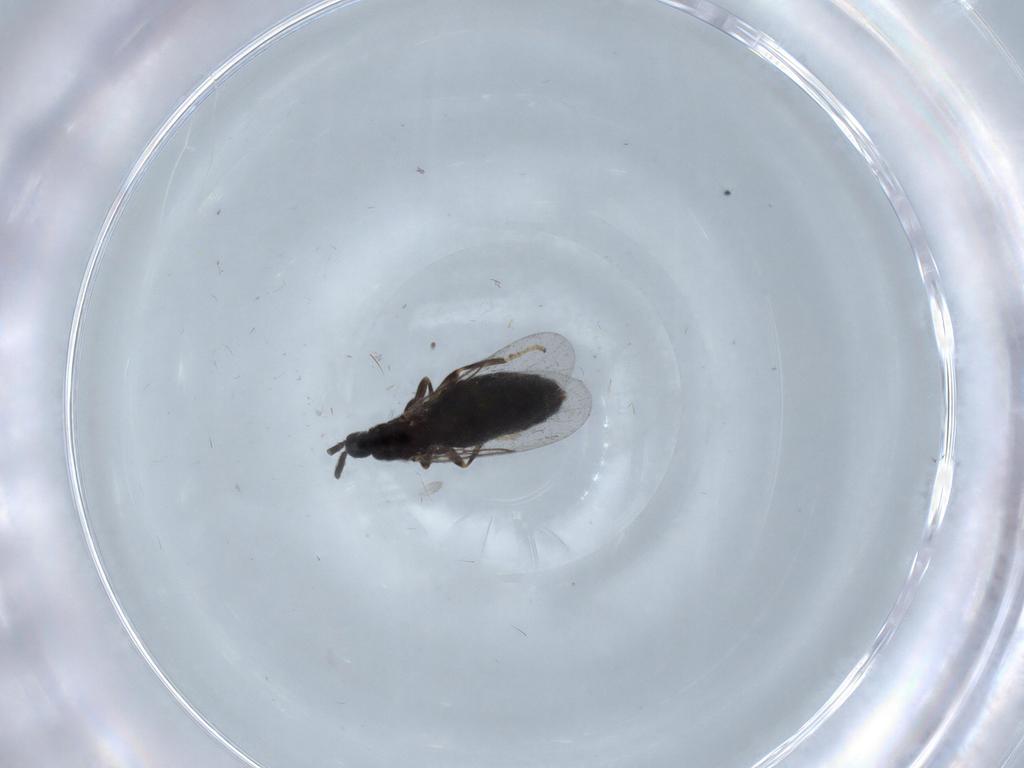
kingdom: Animalia
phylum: Arthropoda
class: Insecta
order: Diptera
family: Scatopsidae
